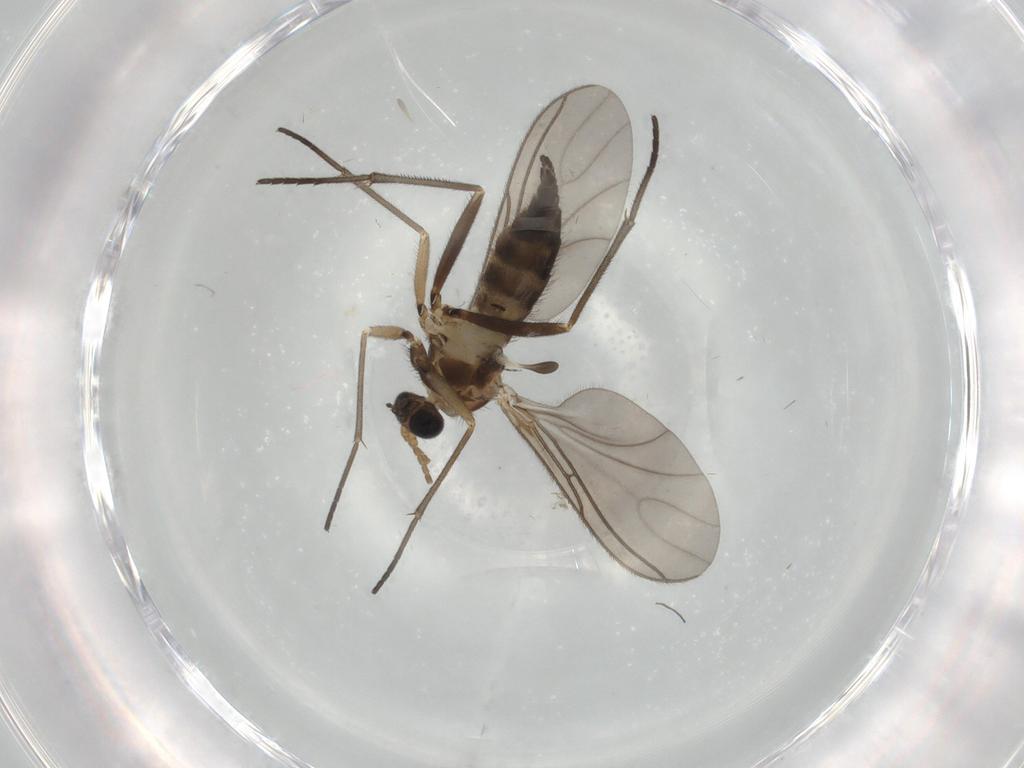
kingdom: Animalia
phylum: Arthropoda
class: Insecta
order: Diptera
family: Sciaridae
